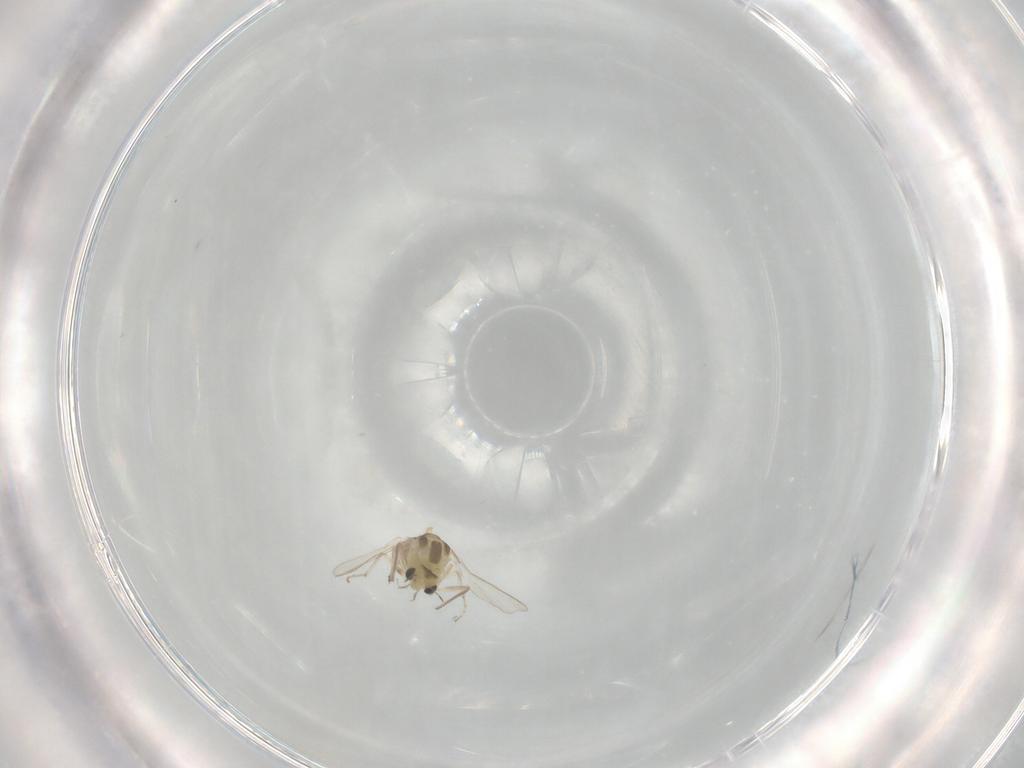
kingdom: Animalia
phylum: Arthropoda
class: Insecta
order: Diptera
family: Chironomidae
